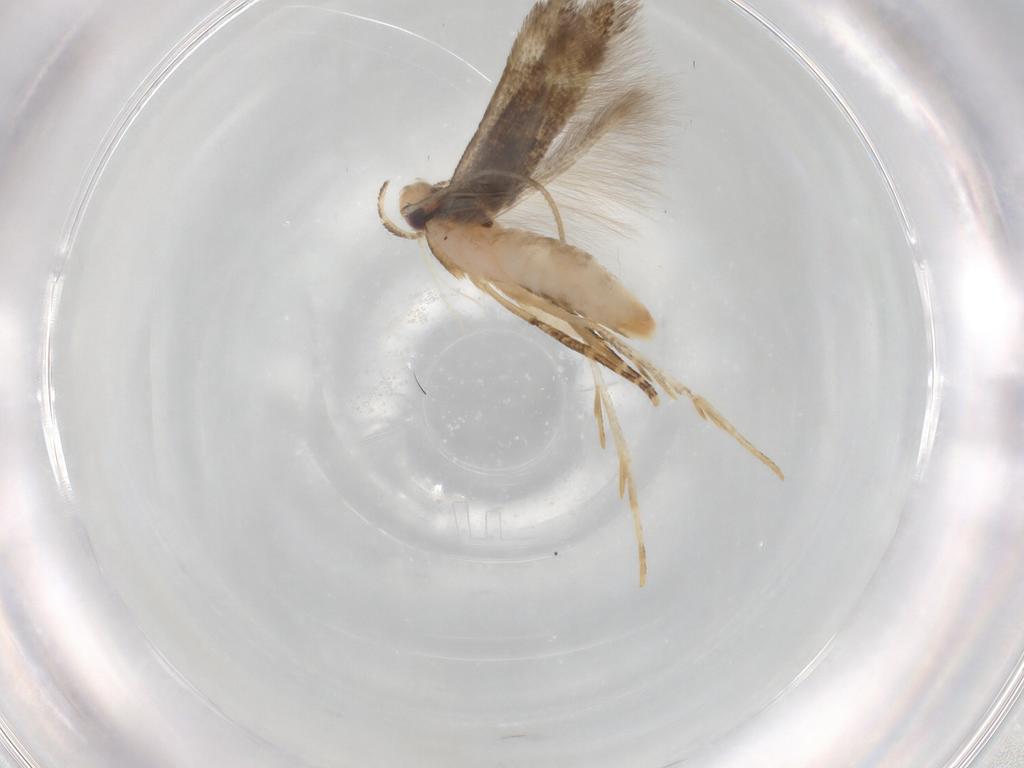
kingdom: Animalia
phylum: Arthropoda
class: Insecta
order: Lepidoptera
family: Cosmopterigidae
